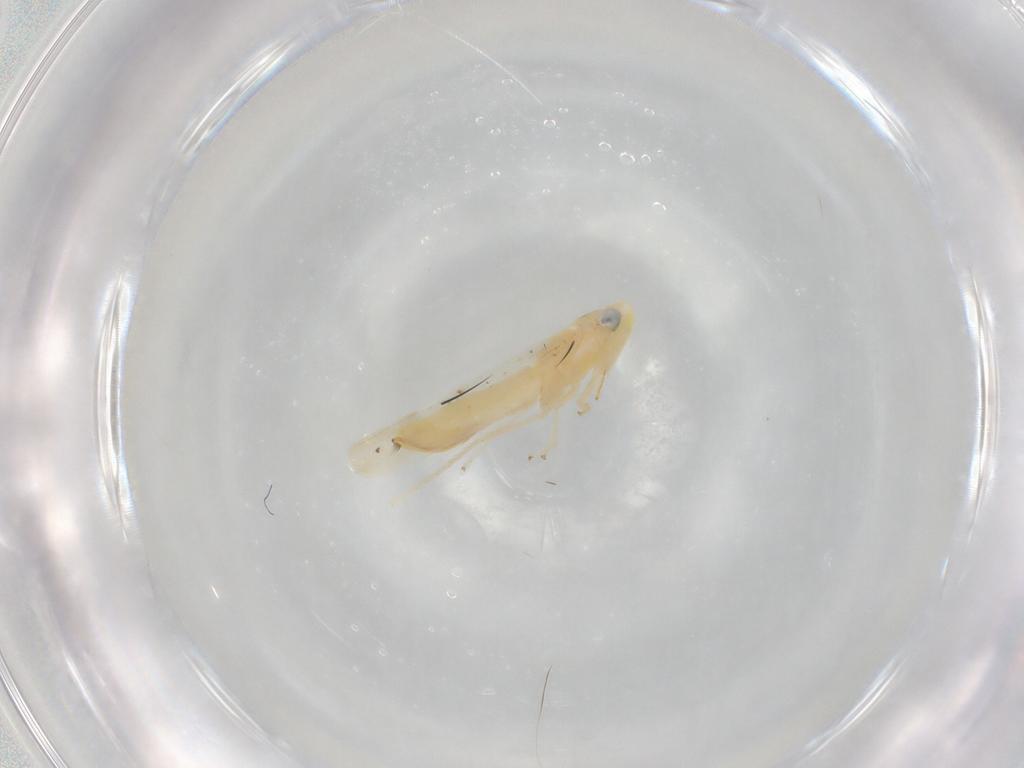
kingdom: Animalia
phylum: Arthropoda
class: Insecta
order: Hemiptera
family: Cicadellidae
